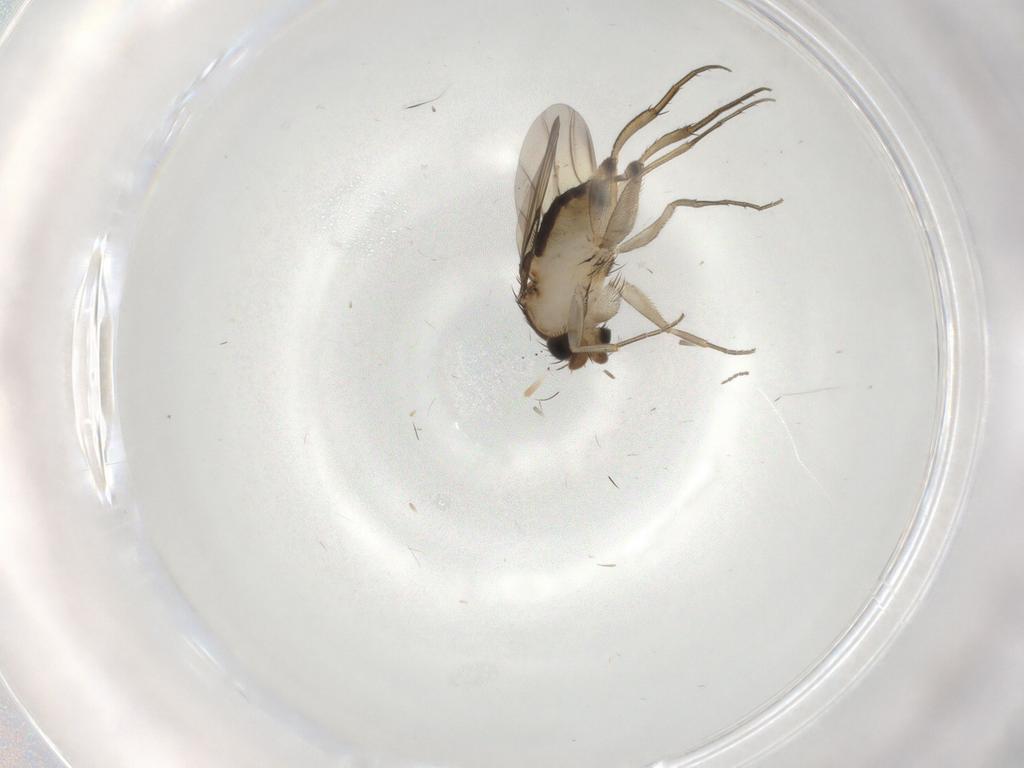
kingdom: Animalia
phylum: Arthropoda
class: Insecta
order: Diptera
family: Phoridae
